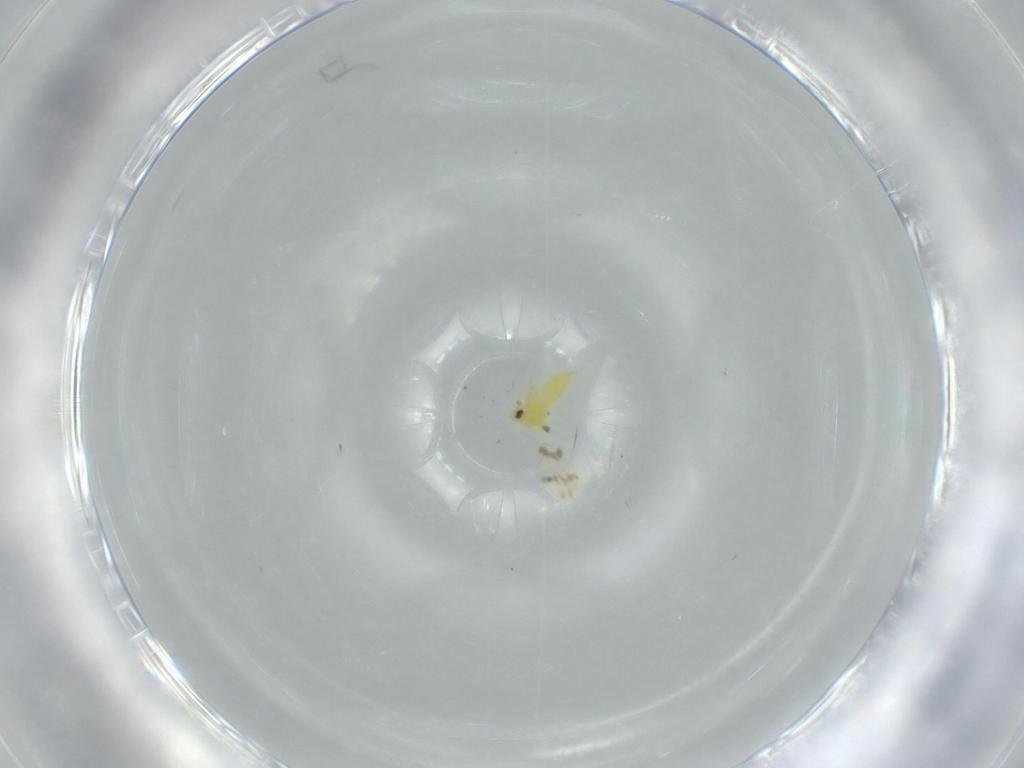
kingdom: Animalia
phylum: Arthropoda
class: Insecta
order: Hemiptera
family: Aleyrodidae
